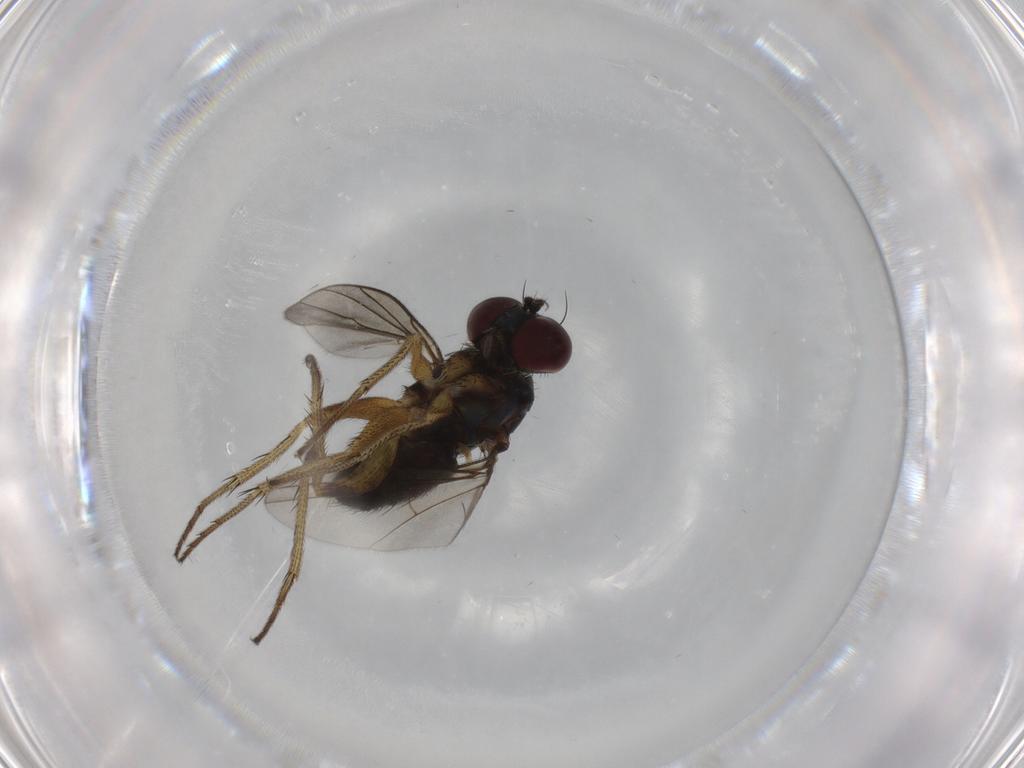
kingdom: Animalia
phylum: Arthropoda
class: Insecta
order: Diptera
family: Dolichopodidae
